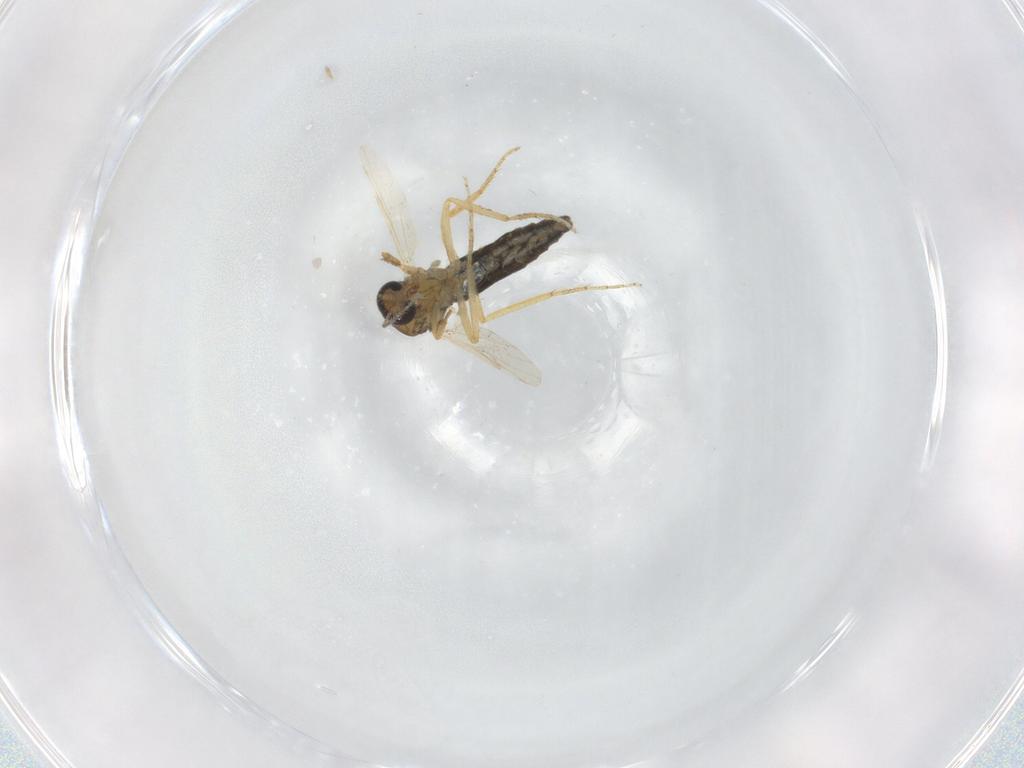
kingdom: Animalia
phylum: Arthropoda
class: Insecta
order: Diptera
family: Ceratopogonidae
